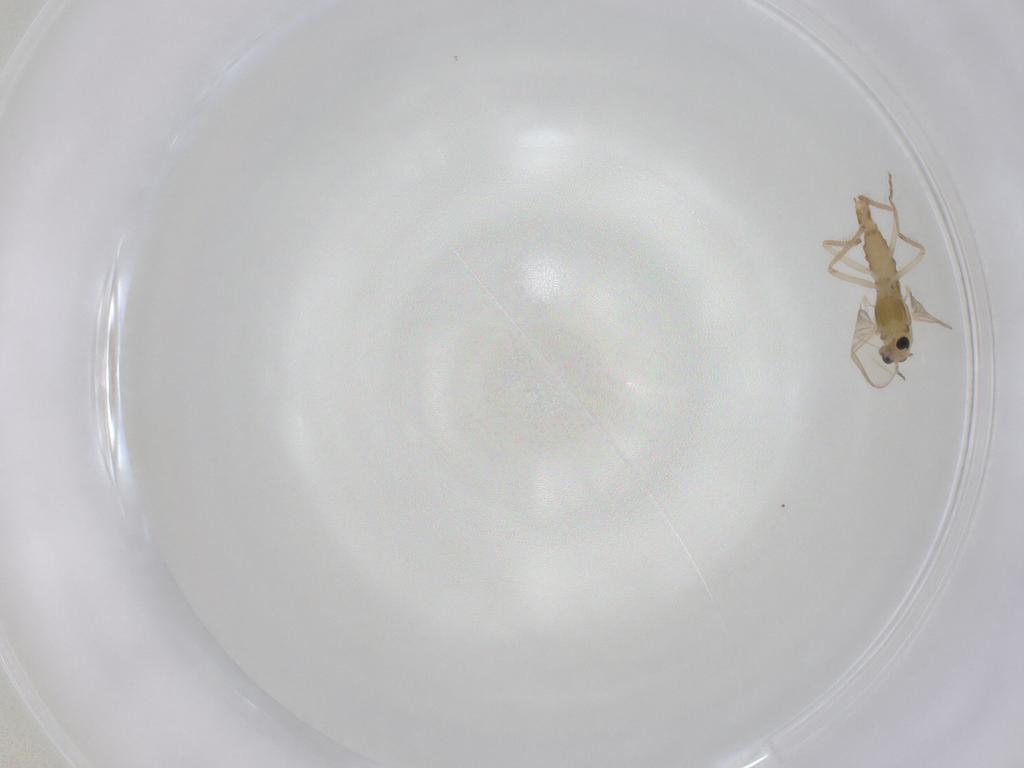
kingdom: Animalia
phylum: Arthropoda
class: Insecta
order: Diptera
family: Chironomidae
